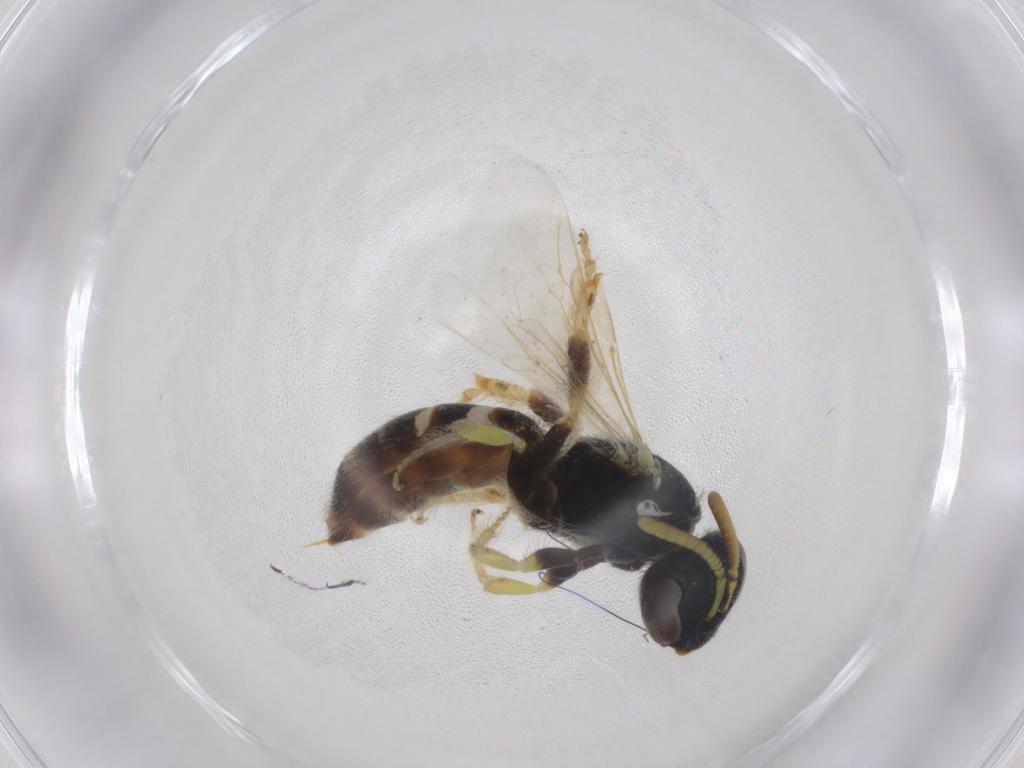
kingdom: Animalia
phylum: Arthropoda
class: Insecta
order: Hymenoptera
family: Halictidae
